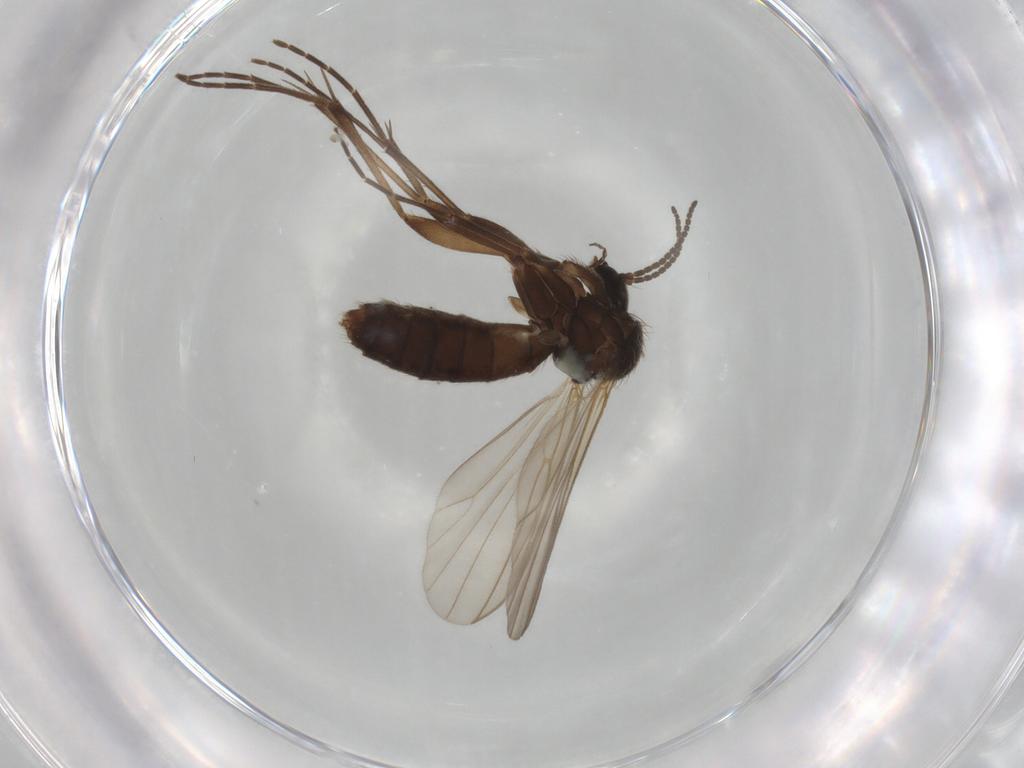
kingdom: Animalia
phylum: Arthropoda
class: Insecta
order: Diptera
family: Mycetophilidae
